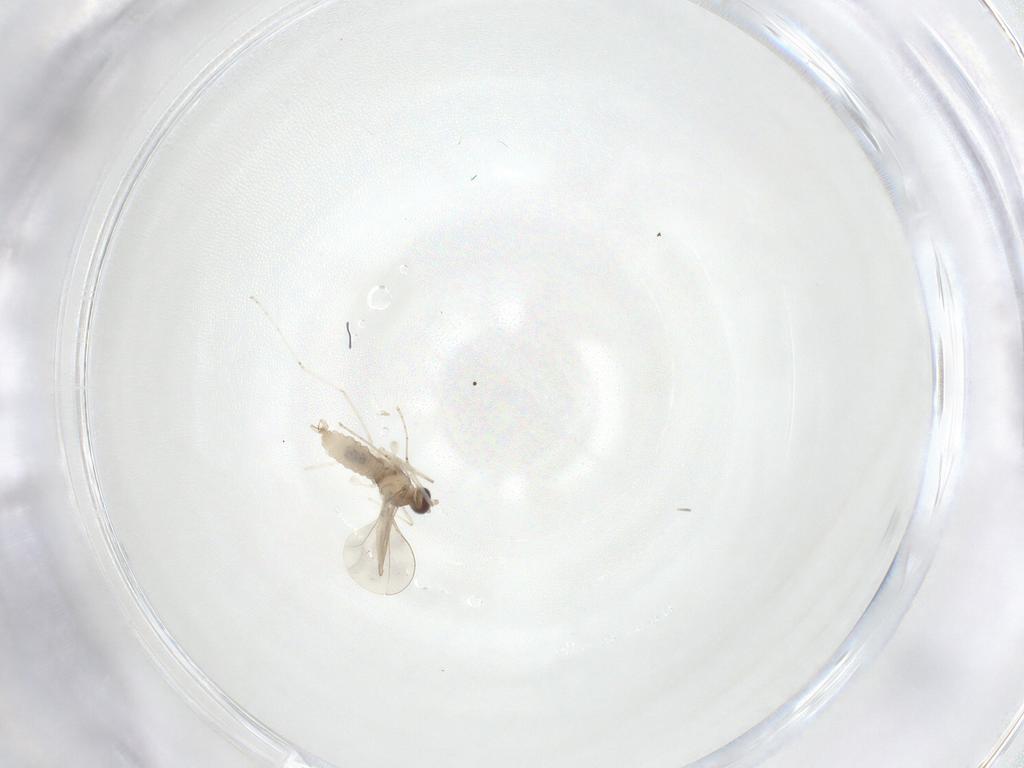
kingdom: Animalia
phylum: Arthropoda
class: Insecta
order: Diptera
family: Cecidomyiidae
